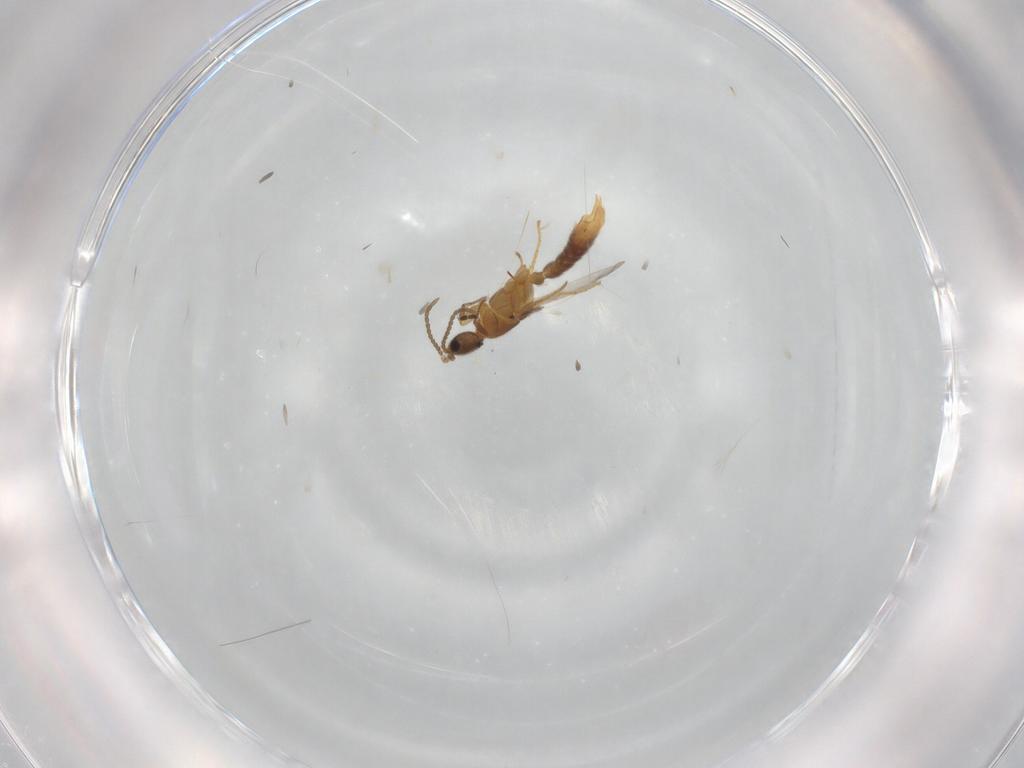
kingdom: Animalia
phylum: Arthropoda
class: Insecta
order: Hymenoptera
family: Formicidae
